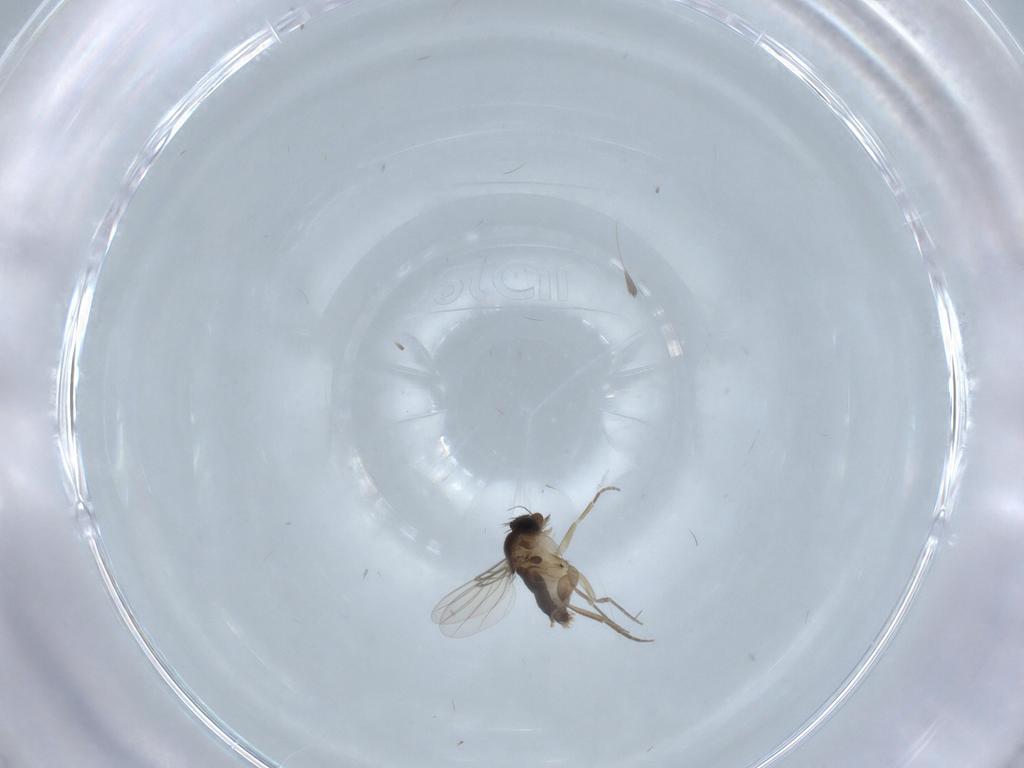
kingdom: Animalia
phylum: Arthropoda
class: Insecta
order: Diptera
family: Phoridae
